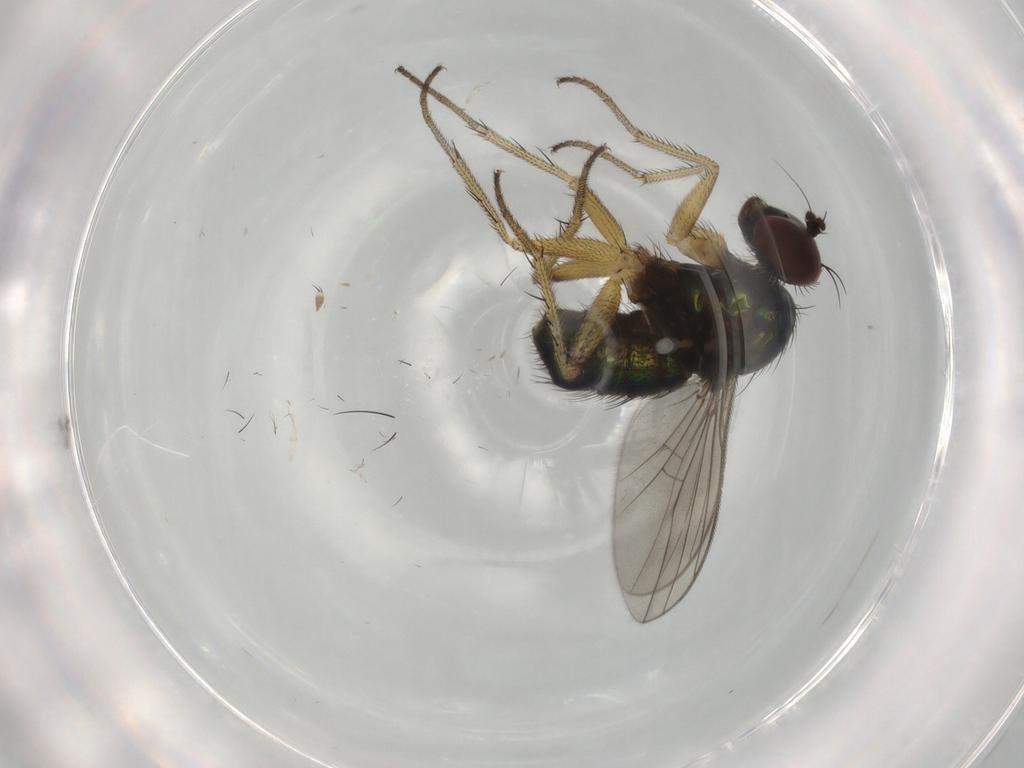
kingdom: Animalia
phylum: Arthropoda
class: Insecta
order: Diptera
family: Dolichopodidae
